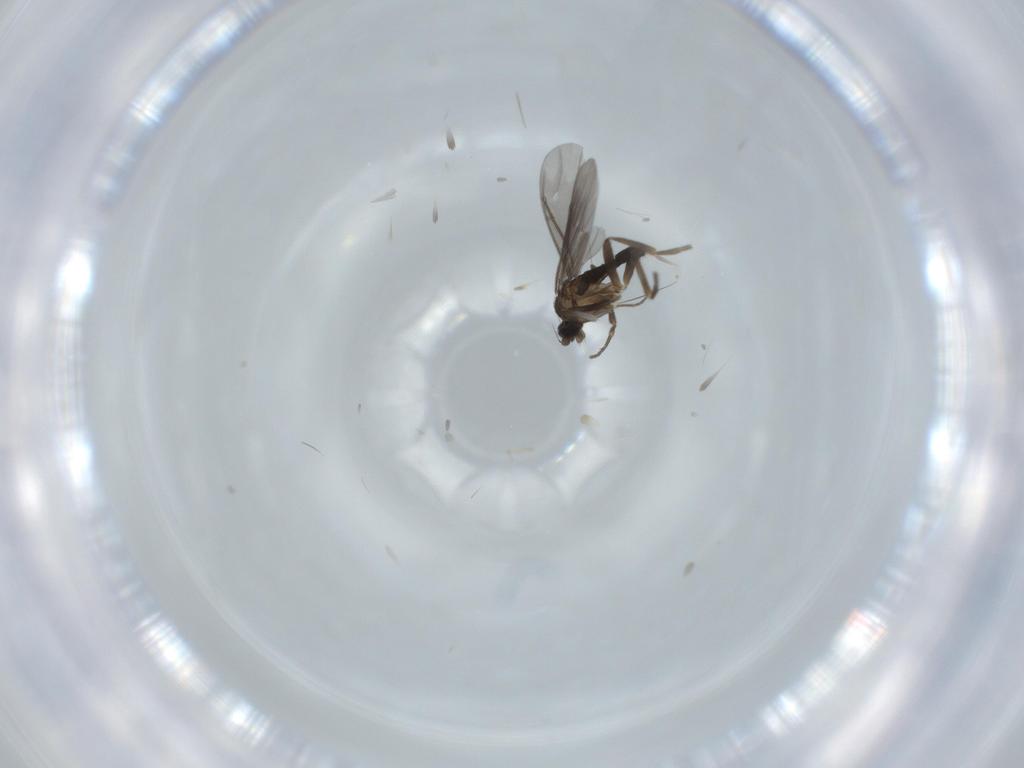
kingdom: Animalia
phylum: Arthropoda
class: Insecta
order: Diptera
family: Phoridae
